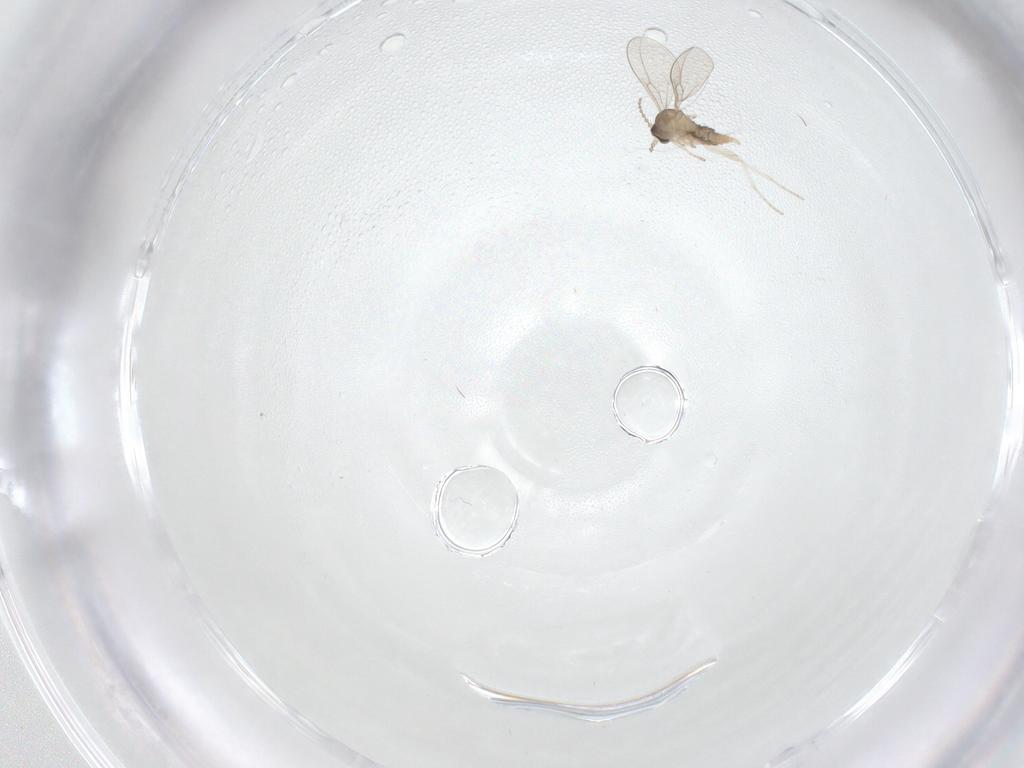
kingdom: Animalia
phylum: Arthropoda
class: Insecta
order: Diptera
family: Cecidomyiidae
